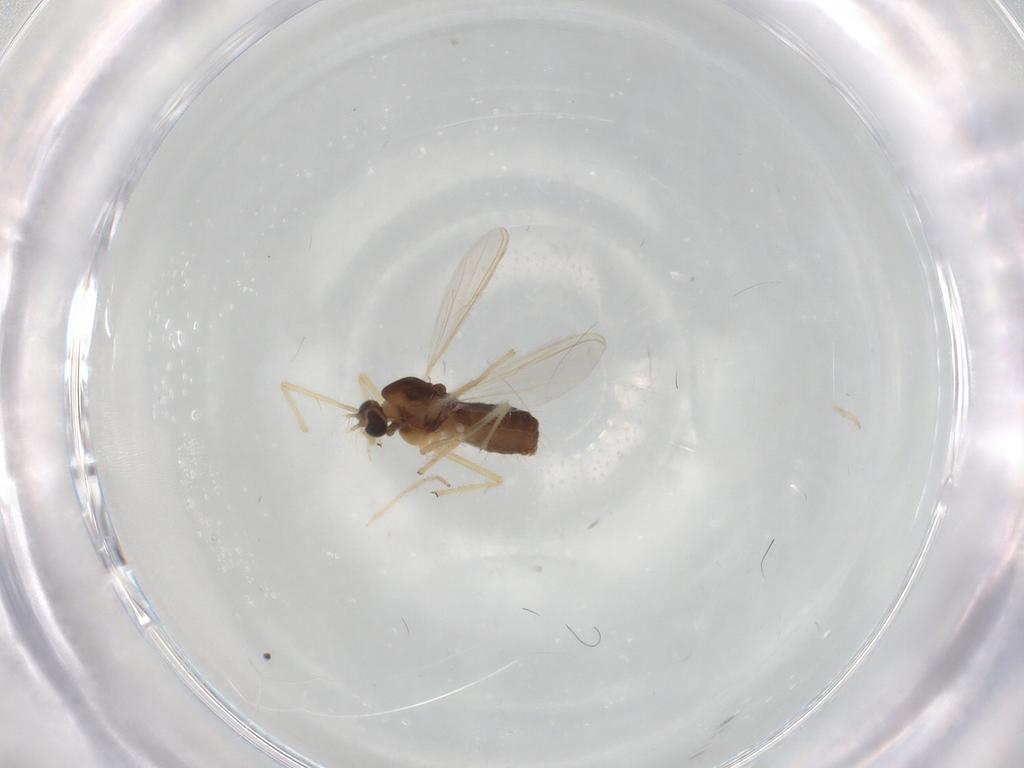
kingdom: Animalia
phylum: Arthropoda
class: Insecta
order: Diptera
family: Chironomidae
